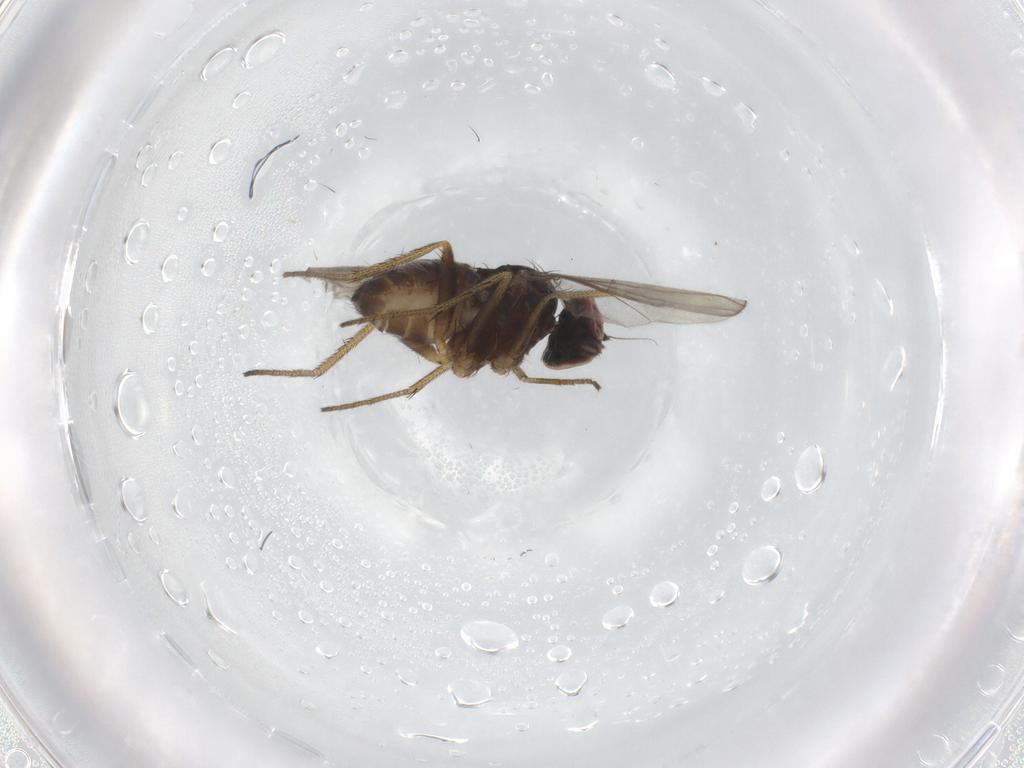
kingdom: Animalia
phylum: Arthropoda
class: Insecta
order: Diptera
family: Dolichopodidae
